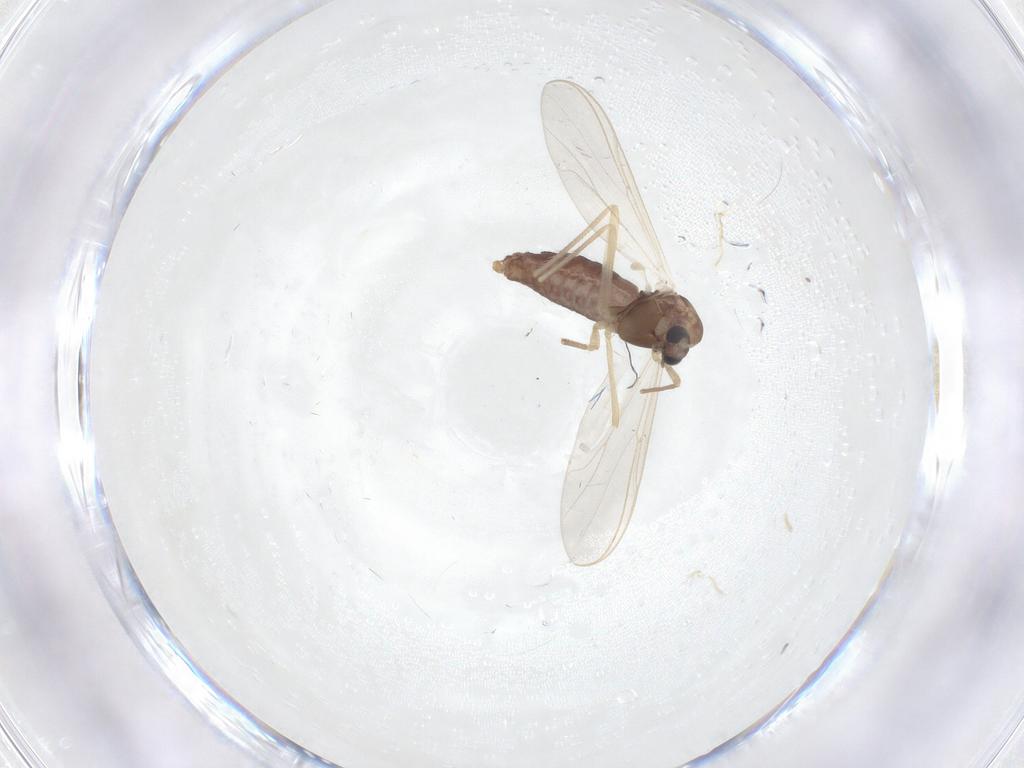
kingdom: Animalia
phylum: Arthropoda
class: Insecta
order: Diptera
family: Chironomidae
